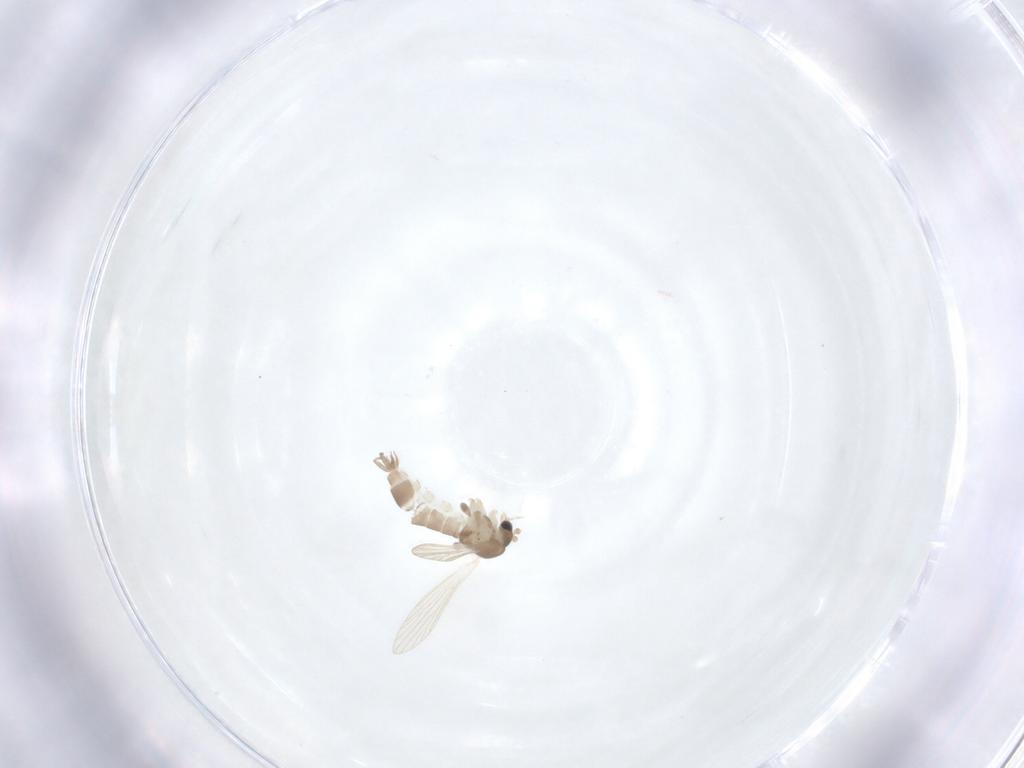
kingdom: Animalia
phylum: Arthropoda
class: Insecta
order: Diptera
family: Psychodidae
